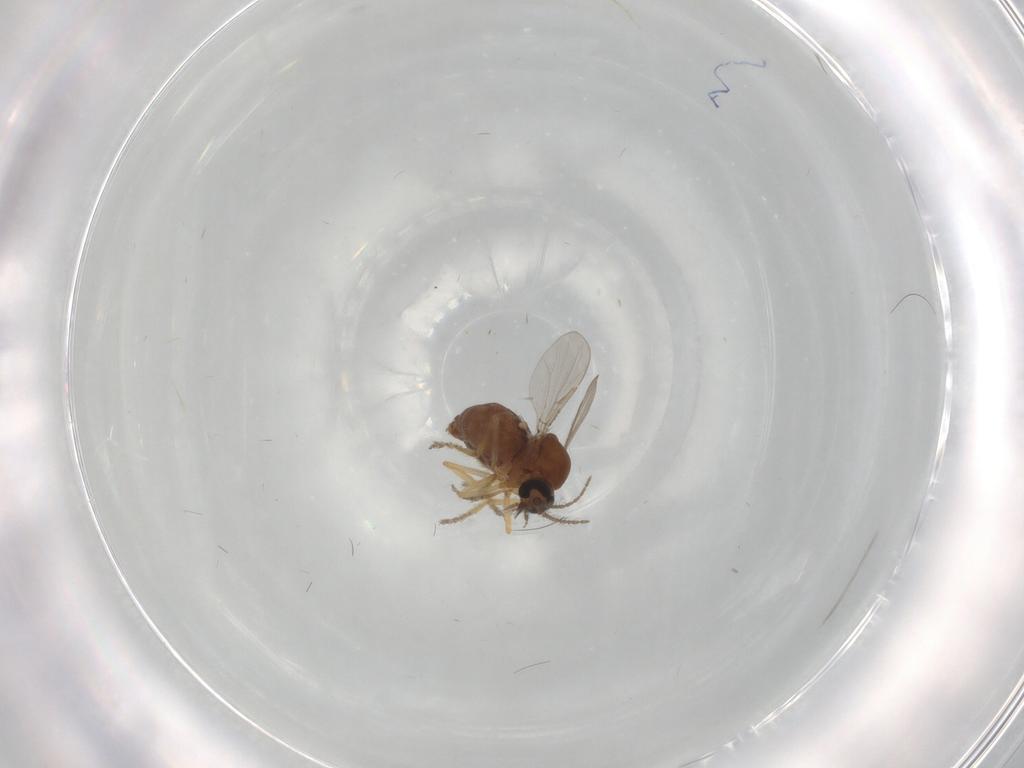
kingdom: Animalia
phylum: Arthropoda
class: Insecta
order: Diptera
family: Ceratopogonidae
